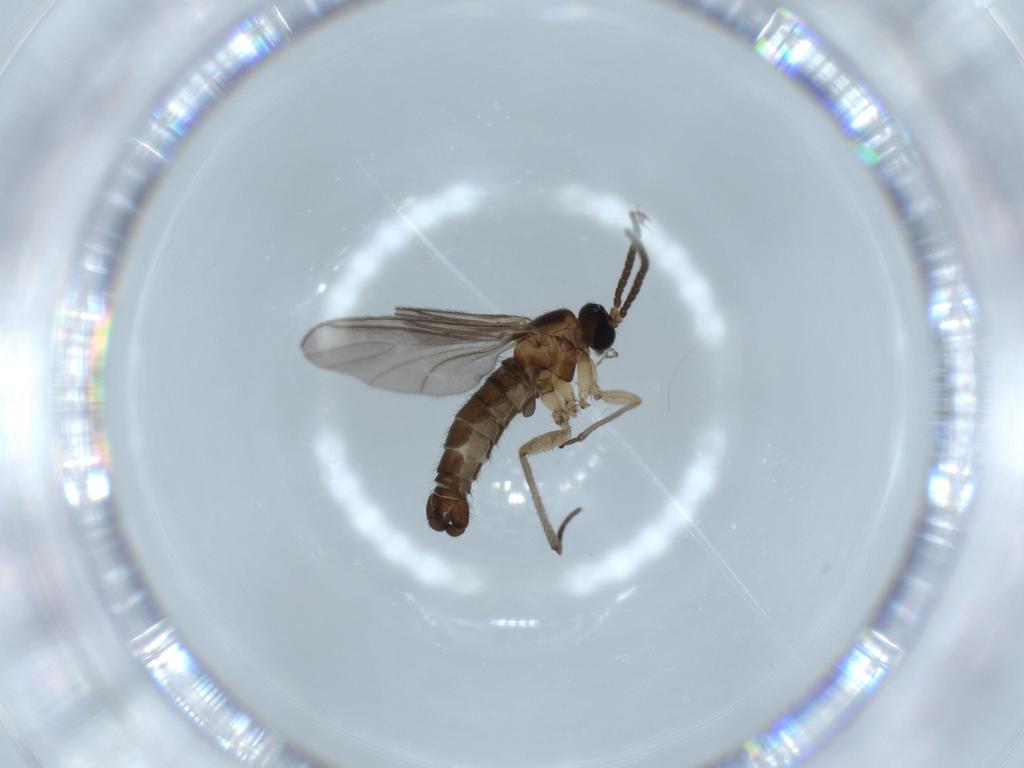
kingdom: Animalia
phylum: Arthropoda
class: Insecta
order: Diptera
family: Sciaridae
